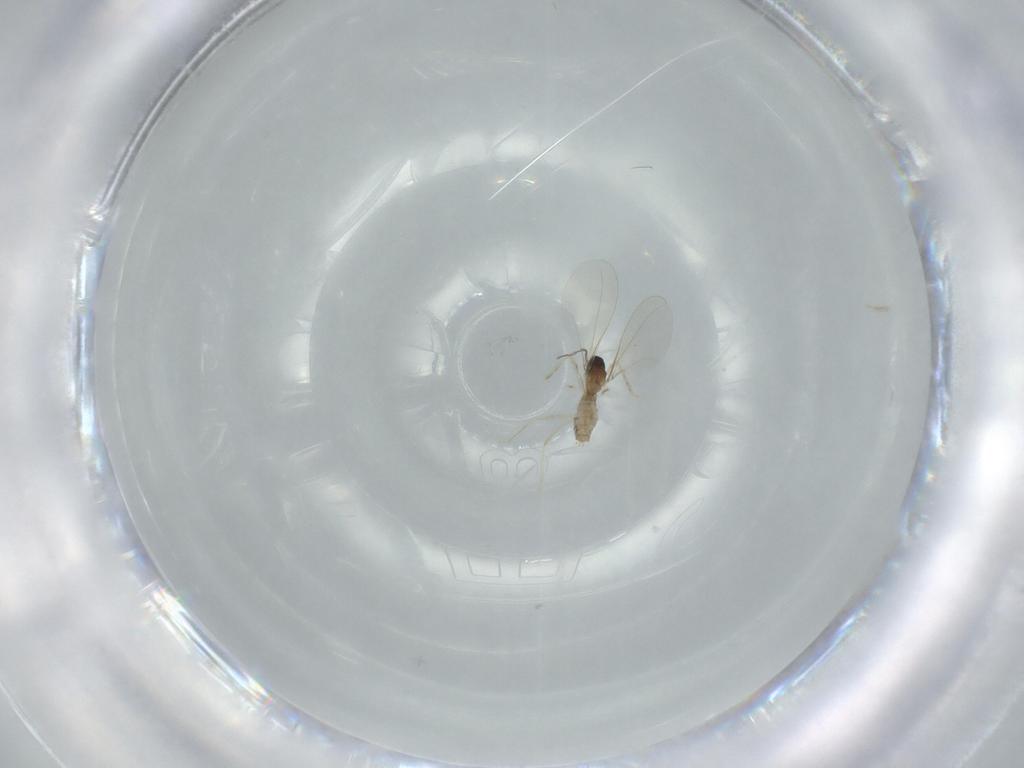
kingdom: Animalia
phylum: Arthropoda
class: Insecta
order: Diptera
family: Cecidomyiidae
